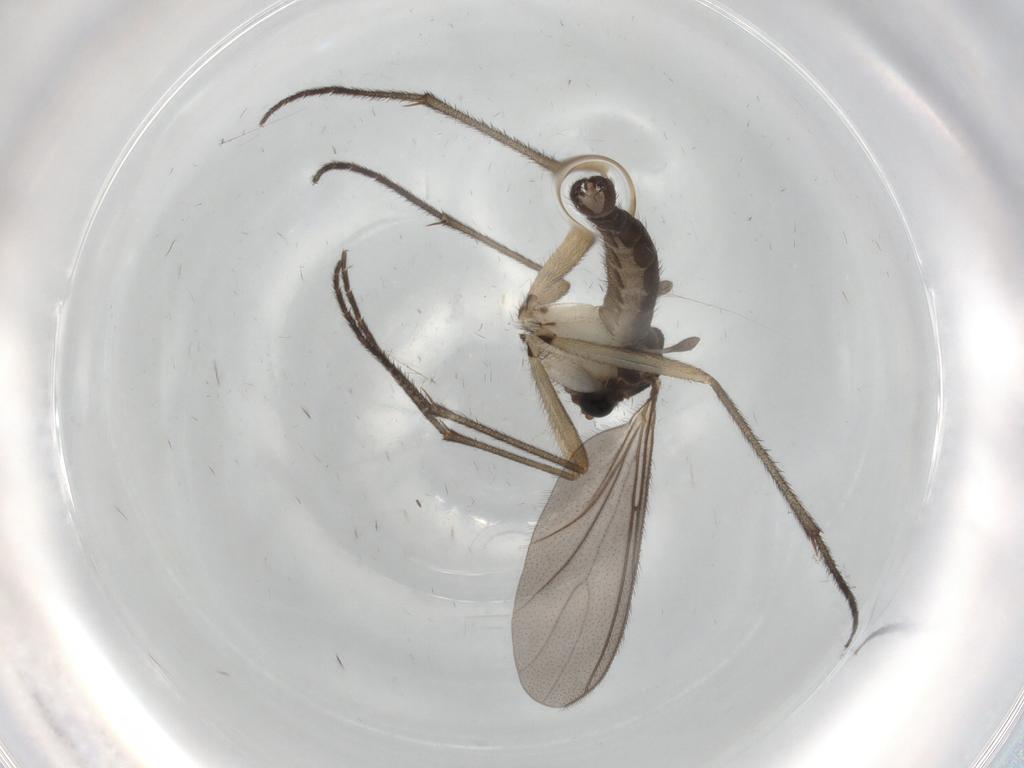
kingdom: Animalia
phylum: Arthropoda
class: Insecta
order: Diptera
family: Sciaridae
